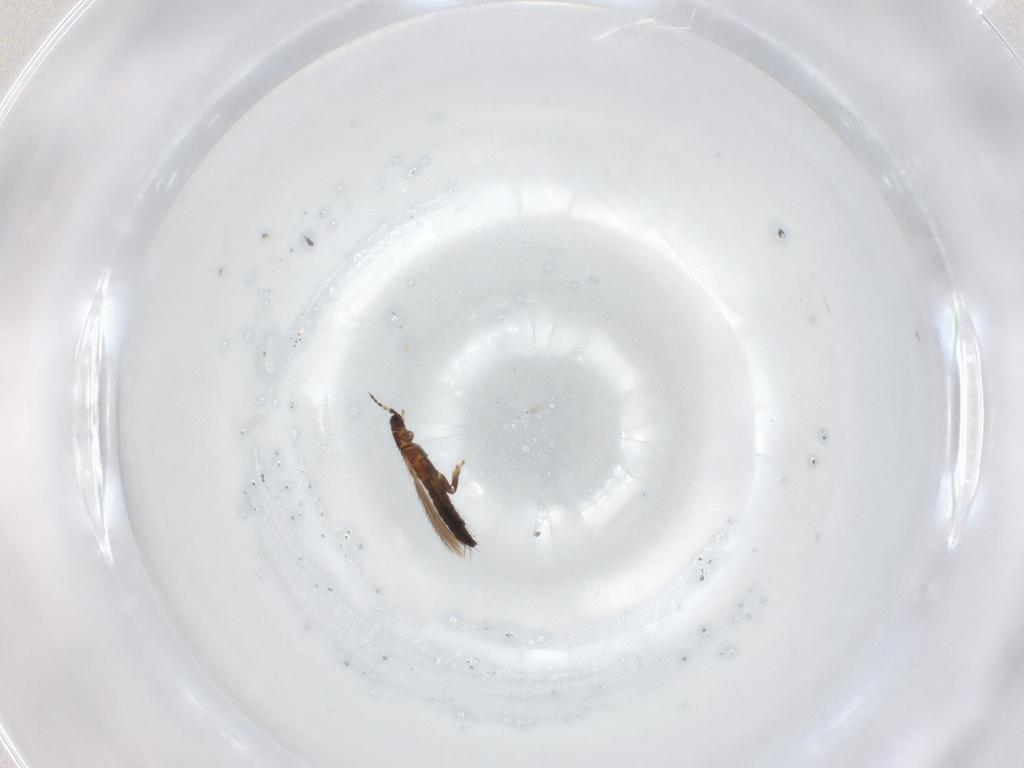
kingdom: Animalia
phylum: Arthropoda
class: Insecta
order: Thysanoptera
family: Thripidae
